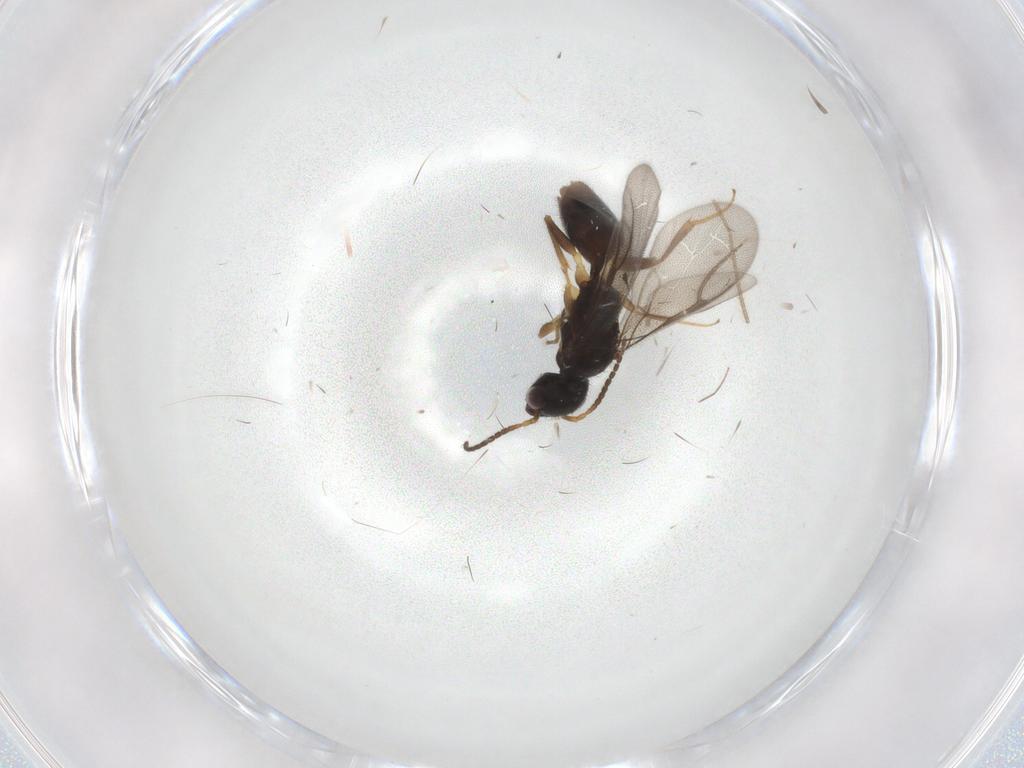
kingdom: Animalia
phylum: Arthropoda
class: Insecta
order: Hymenoptera
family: Bethylidae
